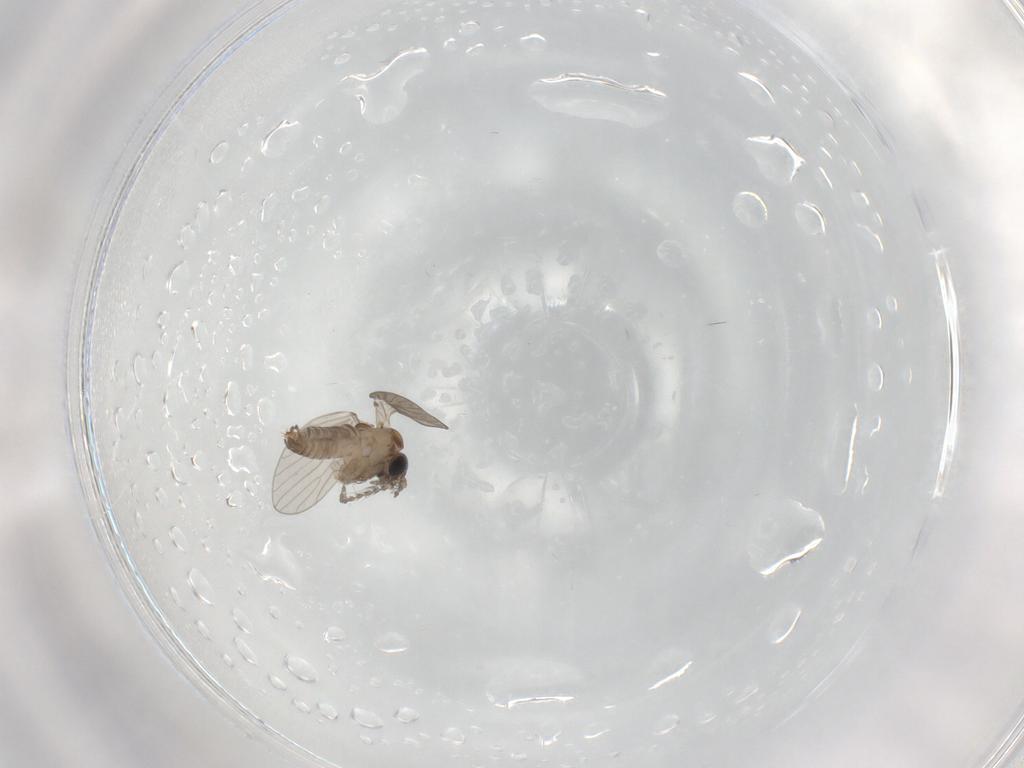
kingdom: Animalia
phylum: Arthropoda
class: Insecta
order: Diptera
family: Psychodidae
